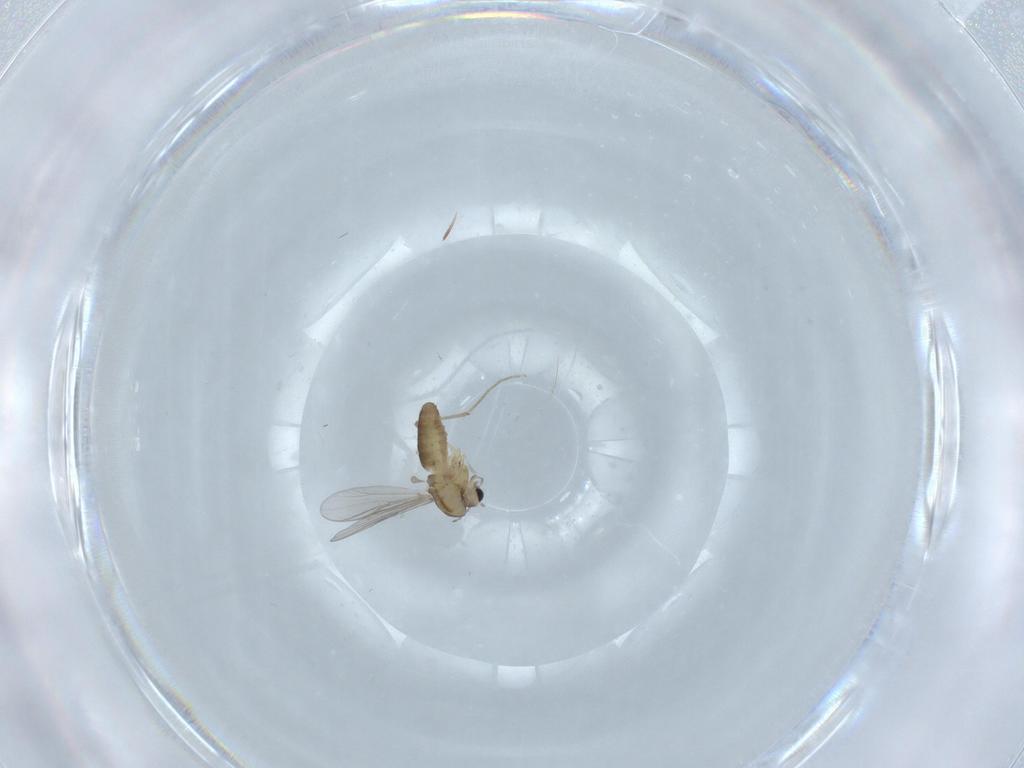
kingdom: Animalia
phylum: Arthropoda
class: Insecta
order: Diptera
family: Chironomidae
